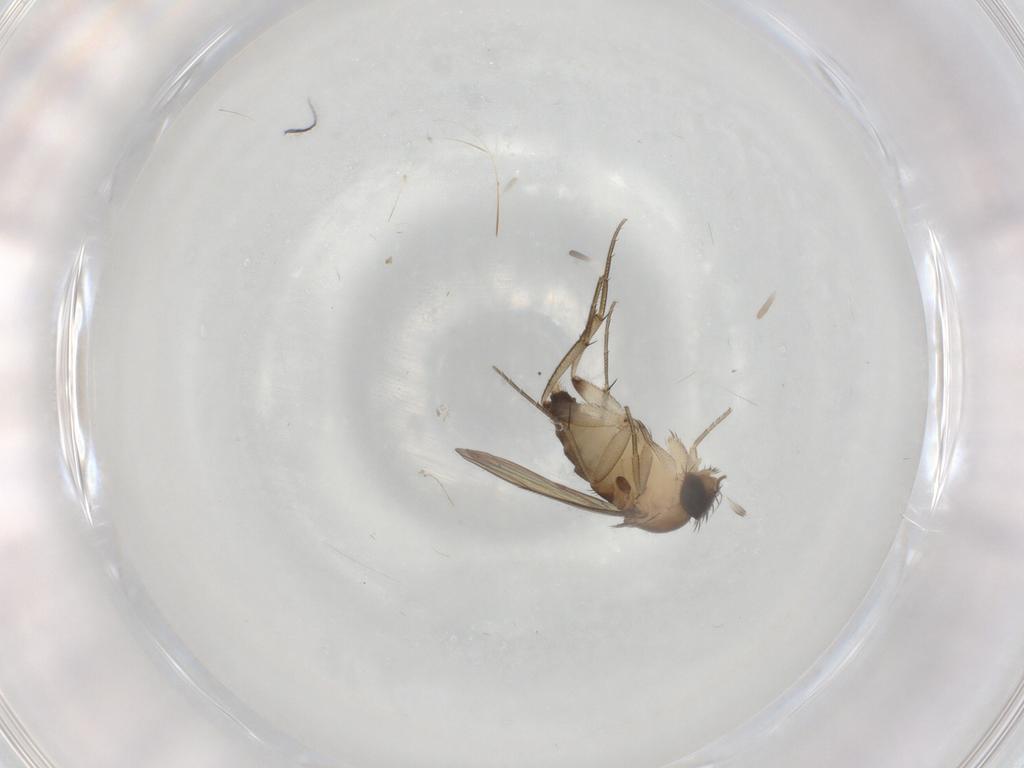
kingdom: Animalia
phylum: Arthropoda
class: Insecta
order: Diptera
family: Phoridae
